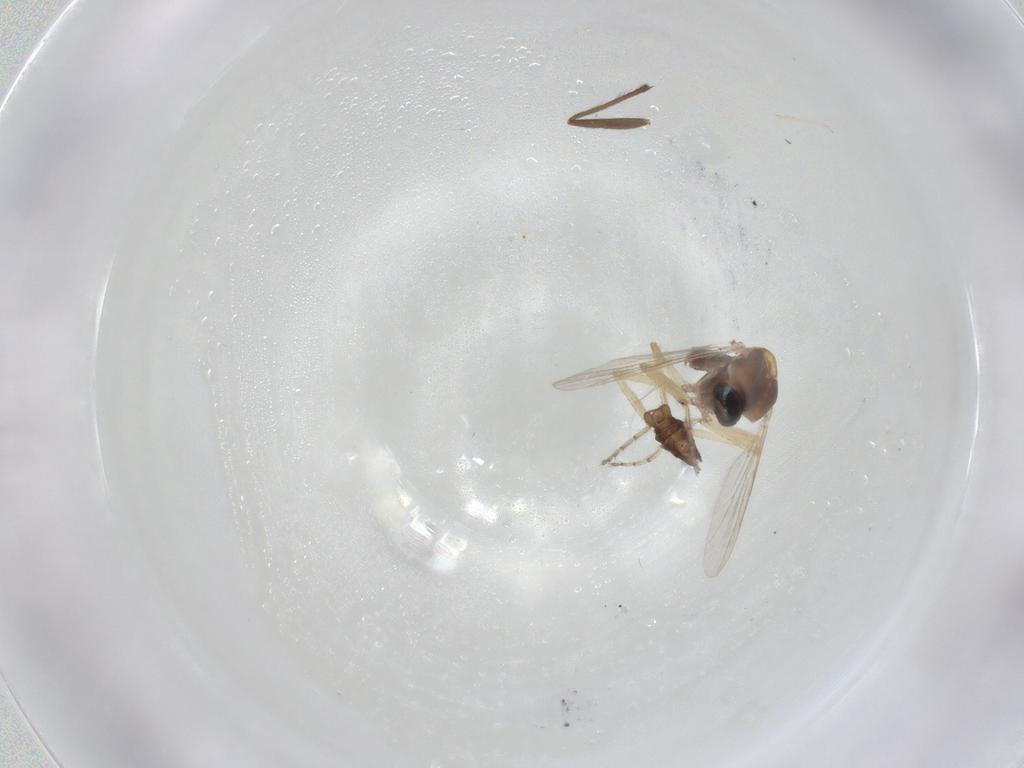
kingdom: Animalia
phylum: Arthropoda
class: Insecta
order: Diptera
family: Ceratopogonidae
